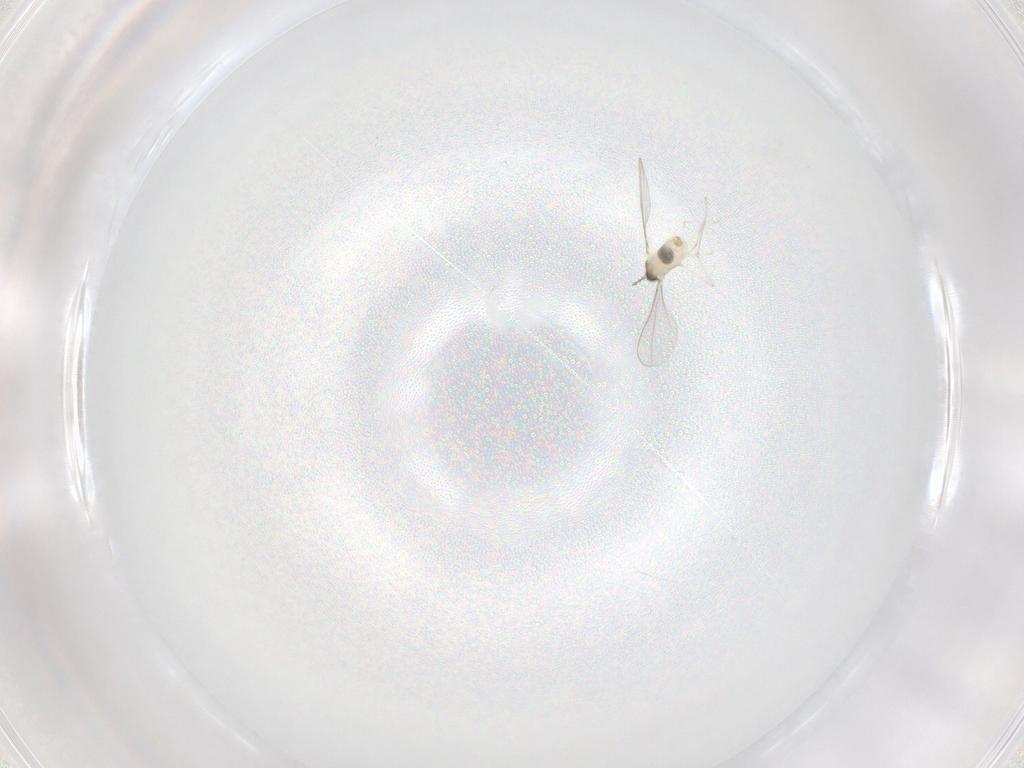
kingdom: Animalia
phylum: Arthropoda
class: Insecta
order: Diptera
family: Cecidomyiidae
